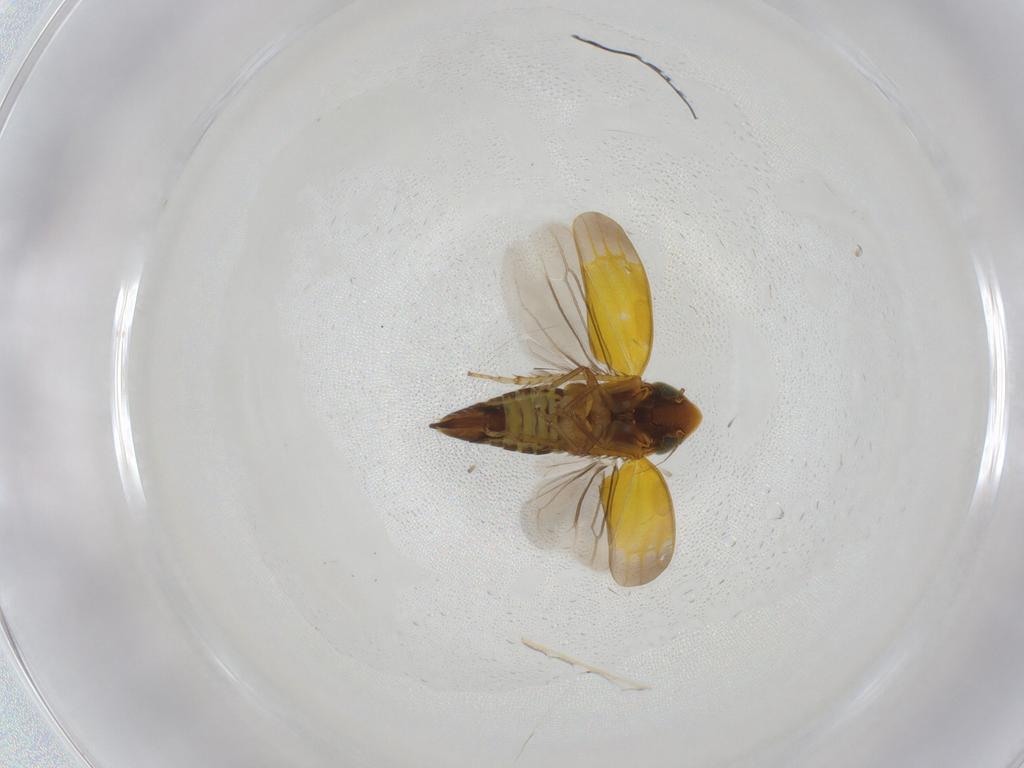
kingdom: Animalia
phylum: Arthropoda
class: Insecta
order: Hemiptera
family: Cicadellidae
